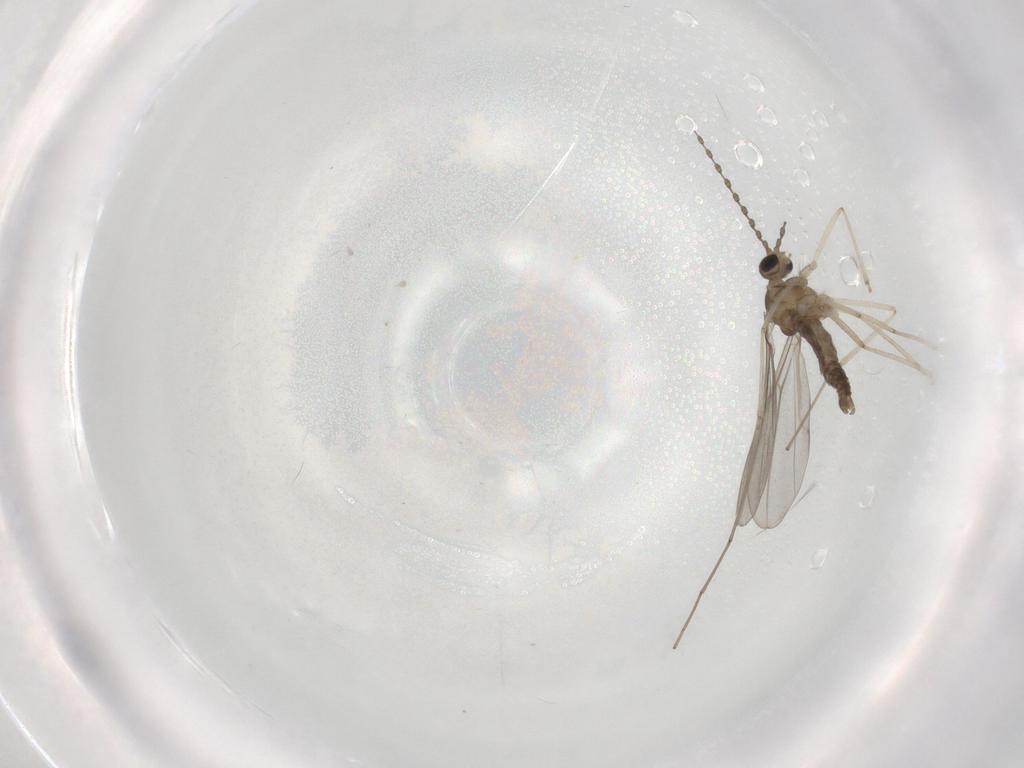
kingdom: Animalia
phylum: Arthropoda
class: Insecta
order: Diptera
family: Cecidomyiidae
